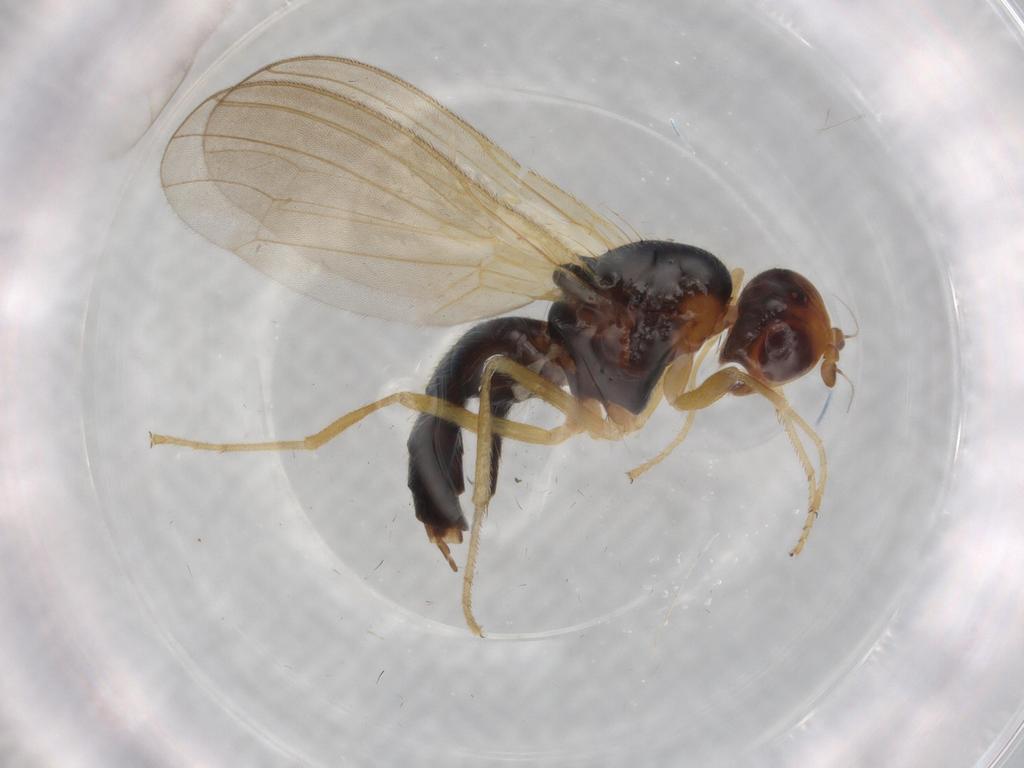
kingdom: Animalia
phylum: Arthropoda
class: Insecta
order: Diptera
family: Psilidae
